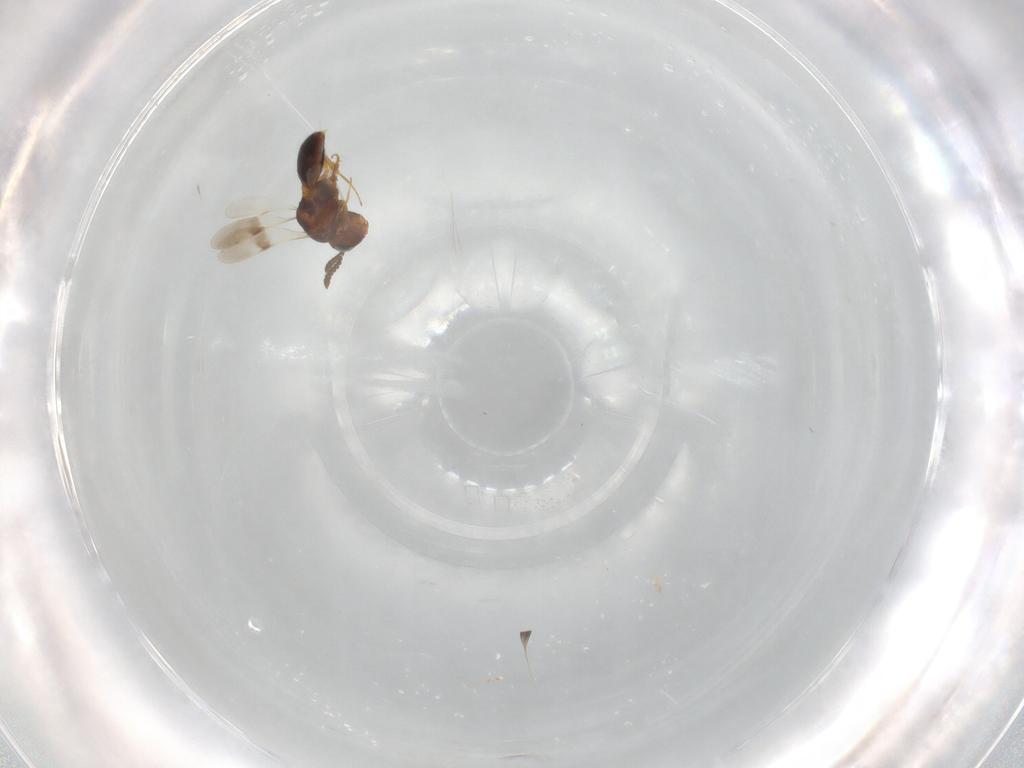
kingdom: Animalia
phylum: Arthropoda
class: Insecta
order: Hymenoptera
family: Scelionidae
